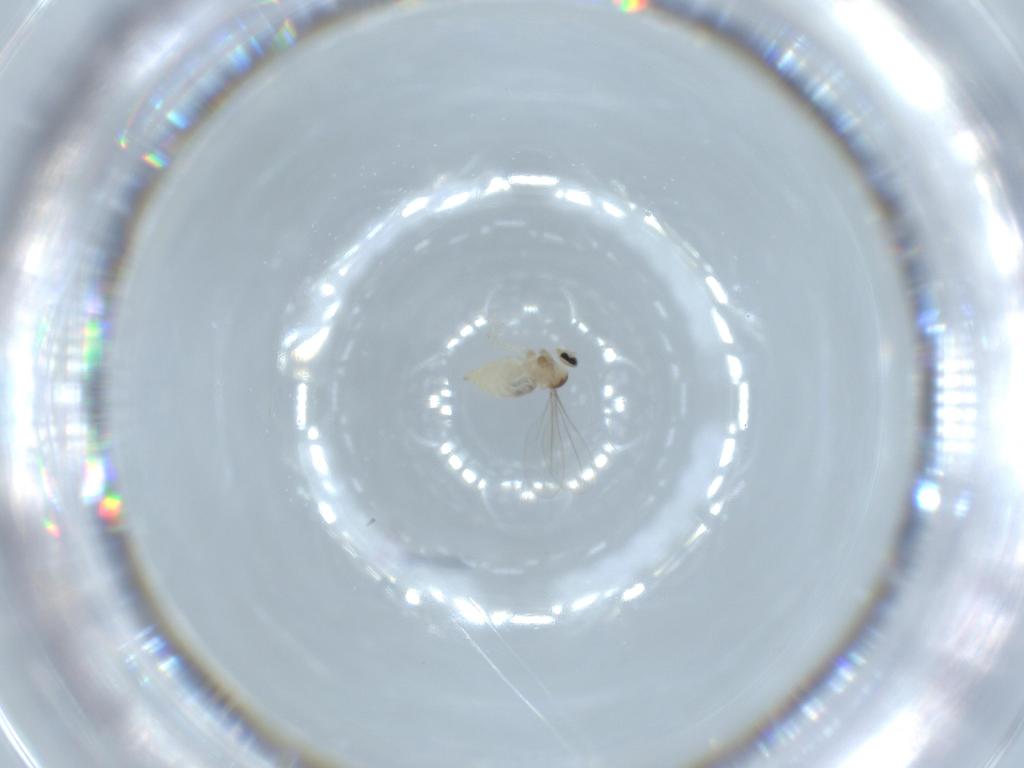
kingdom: Animalia
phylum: Arthropoda
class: Insecta
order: Diptera
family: Cecidomyiidae
